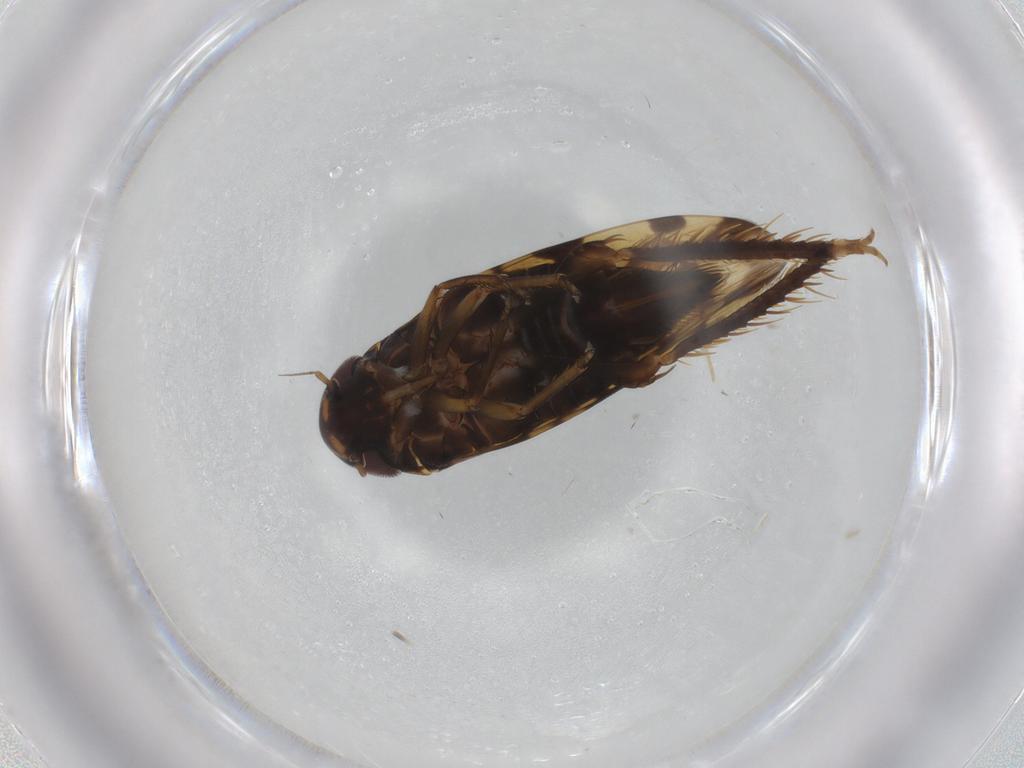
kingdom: Animalia
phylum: Arthropoda
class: Insecta
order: Hemiptera
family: Cicadellidae
